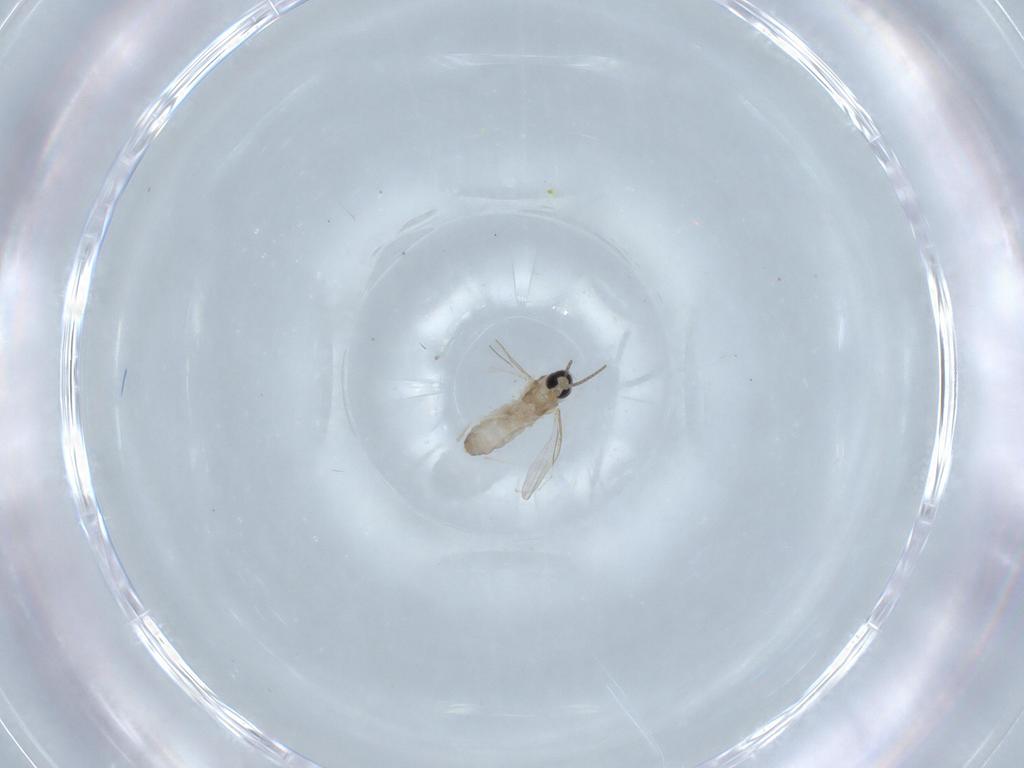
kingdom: Animalia
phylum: Arthropoda
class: Insecta
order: Diptera
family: Cecidomyiidae
